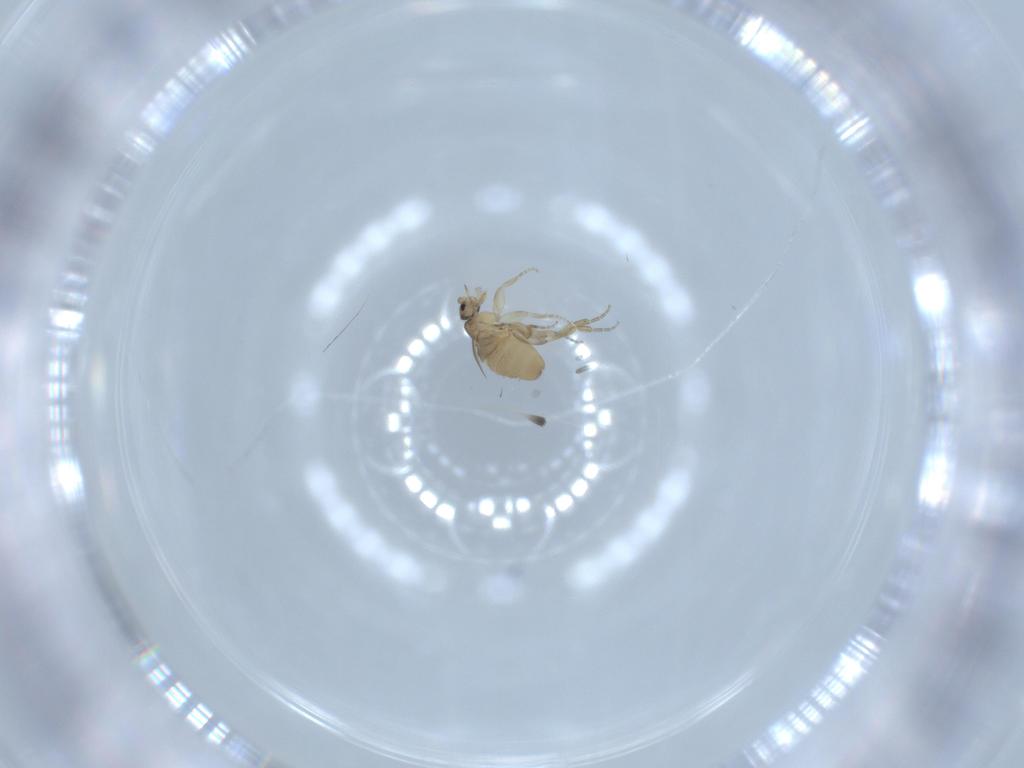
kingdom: Animalia
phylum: Arthropoda
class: Insecta
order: Diptera
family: Phoridae
